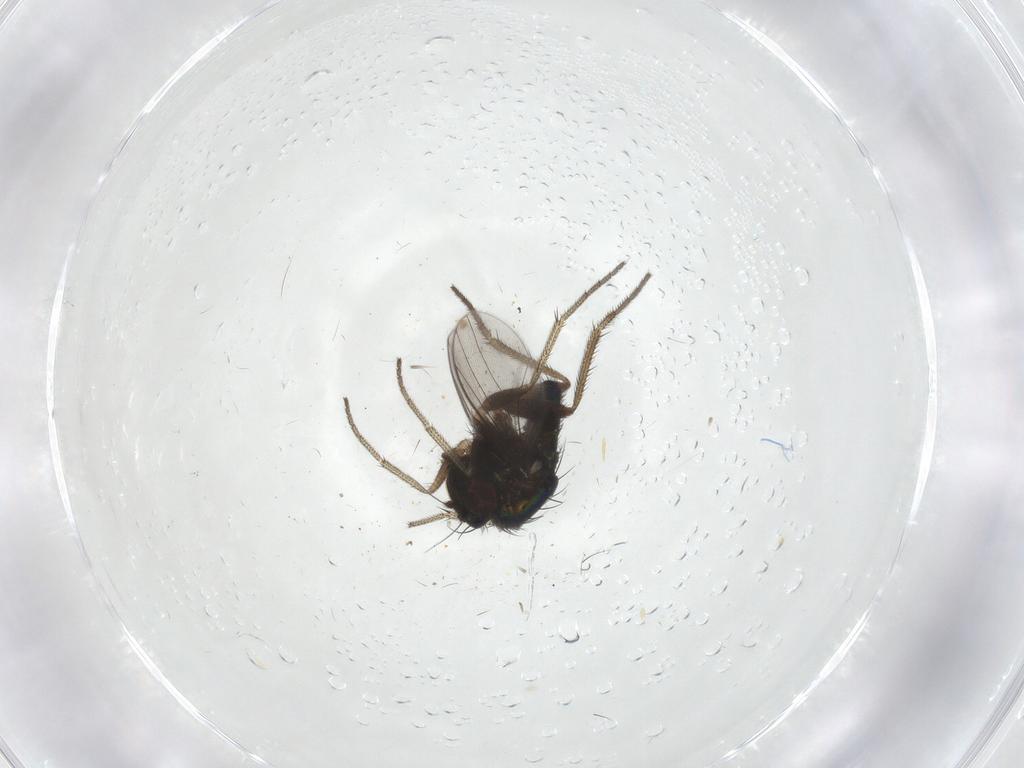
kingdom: Animalia
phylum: Arthropoda
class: Insecta
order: Diptera
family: Dolichopodidae
